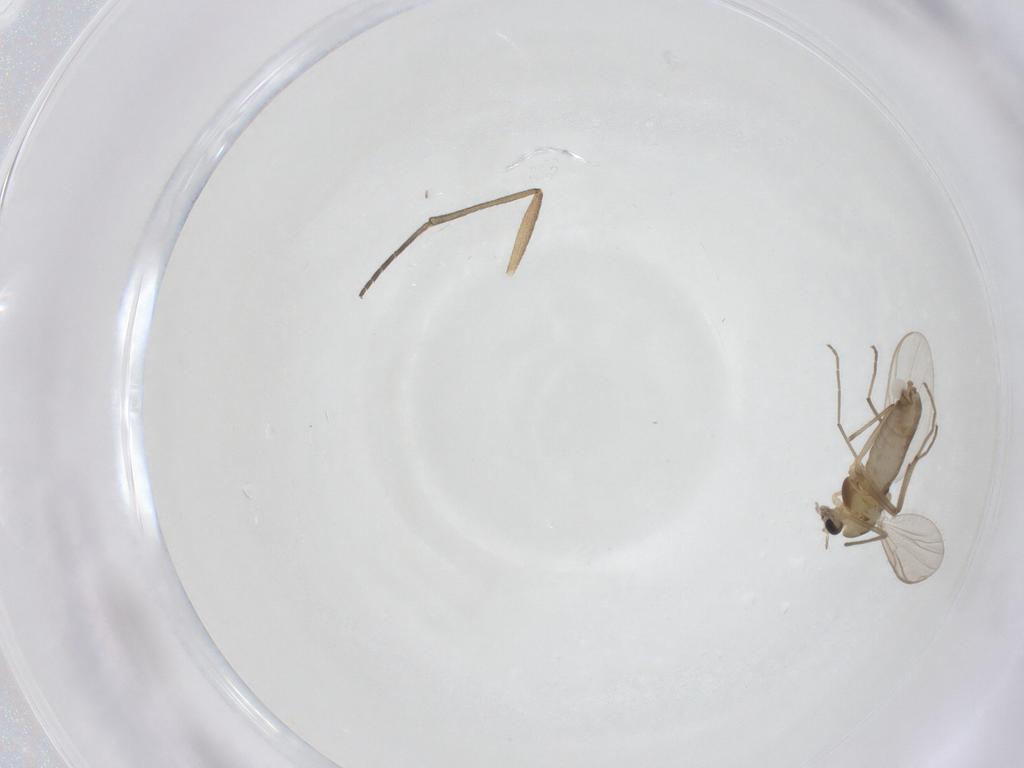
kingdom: Animalia
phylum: Arthropoda
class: Insecta
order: Diptera
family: Chironomidae
